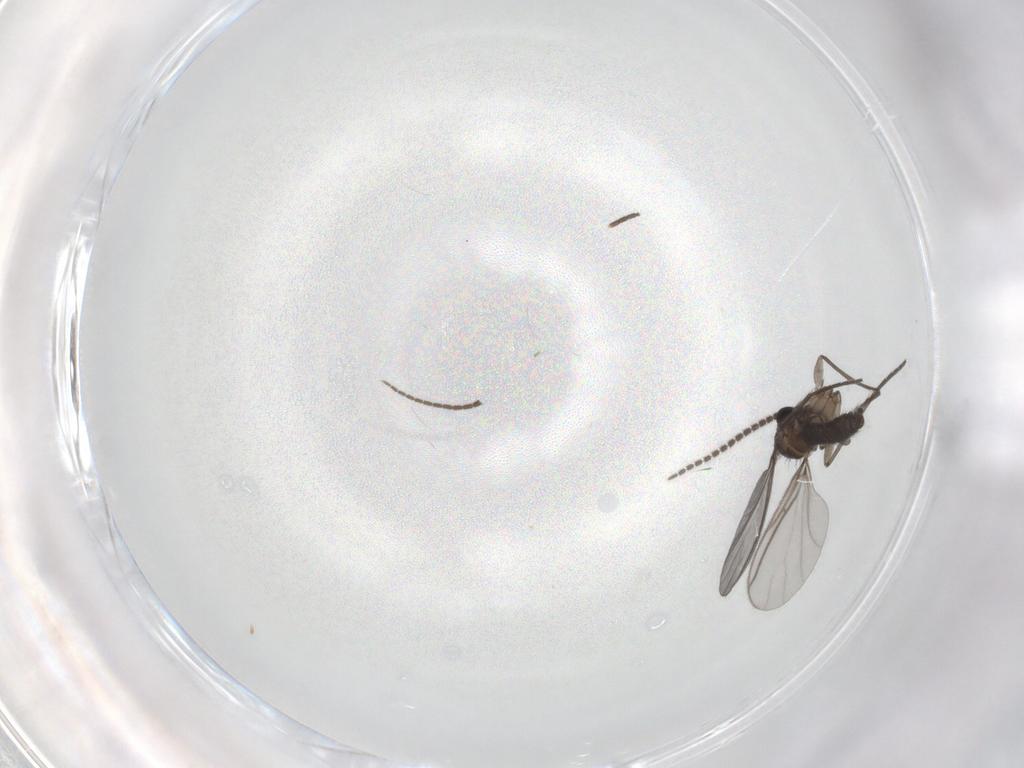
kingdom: Animalia
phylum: Arthropoda
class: Insecta
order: Diptera
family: Sciaridae
